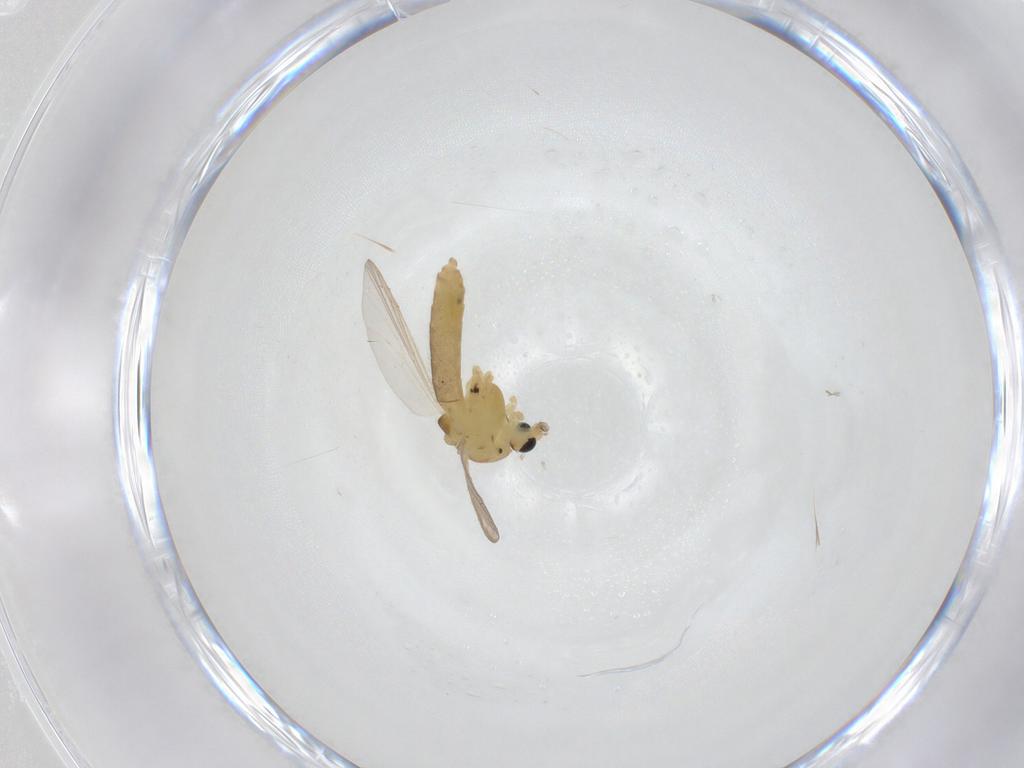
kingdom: Animalia
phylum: Arthropoda
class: Insecta
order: Diptera
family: Chironomidae
